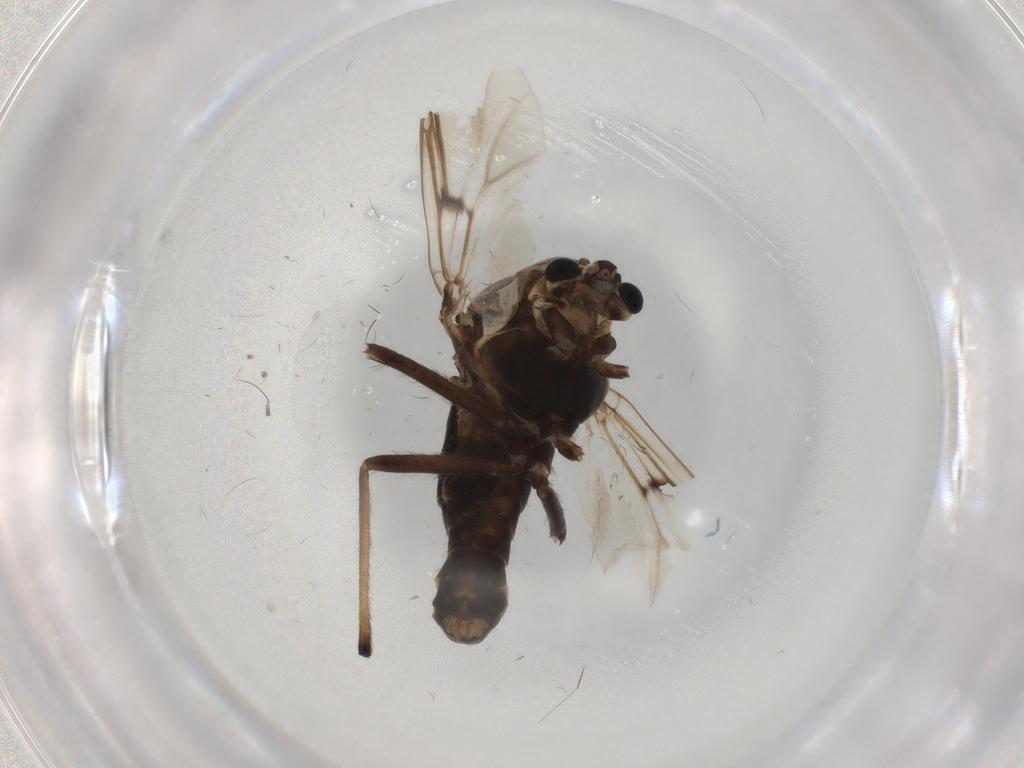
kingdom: Animalia
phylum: Arthropoda
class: Insecta
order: Diptera
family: Chironomidae
